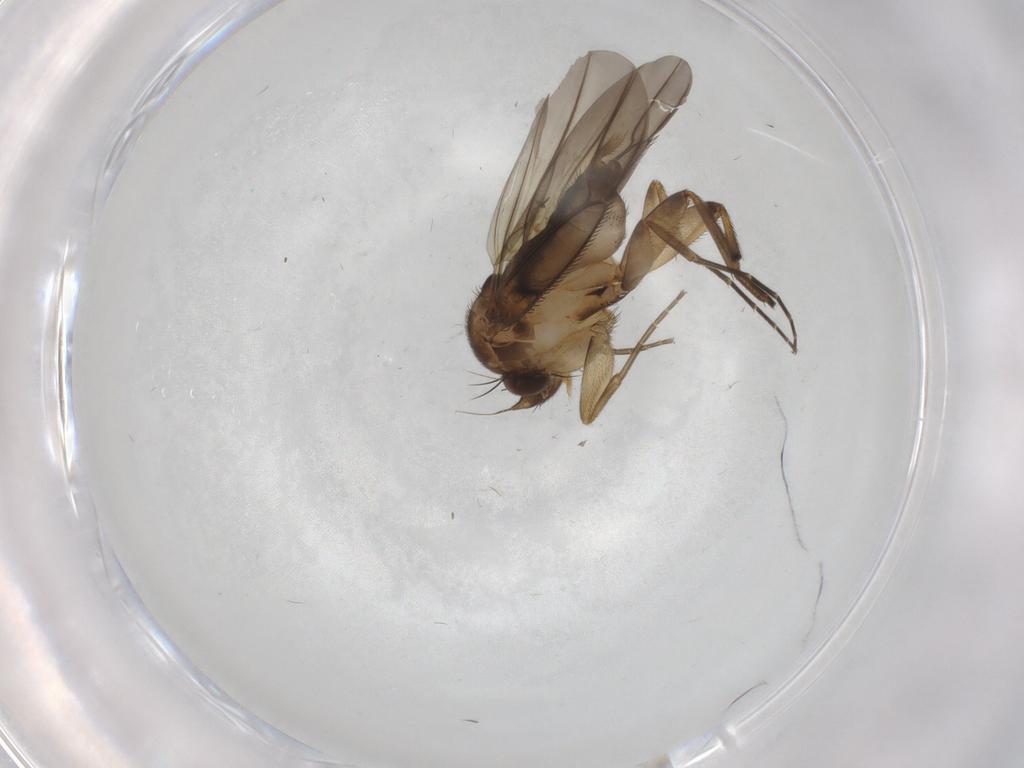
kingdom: Animalia
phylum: Arthropoda
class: Insecta
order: Diptera
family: Phoridae
